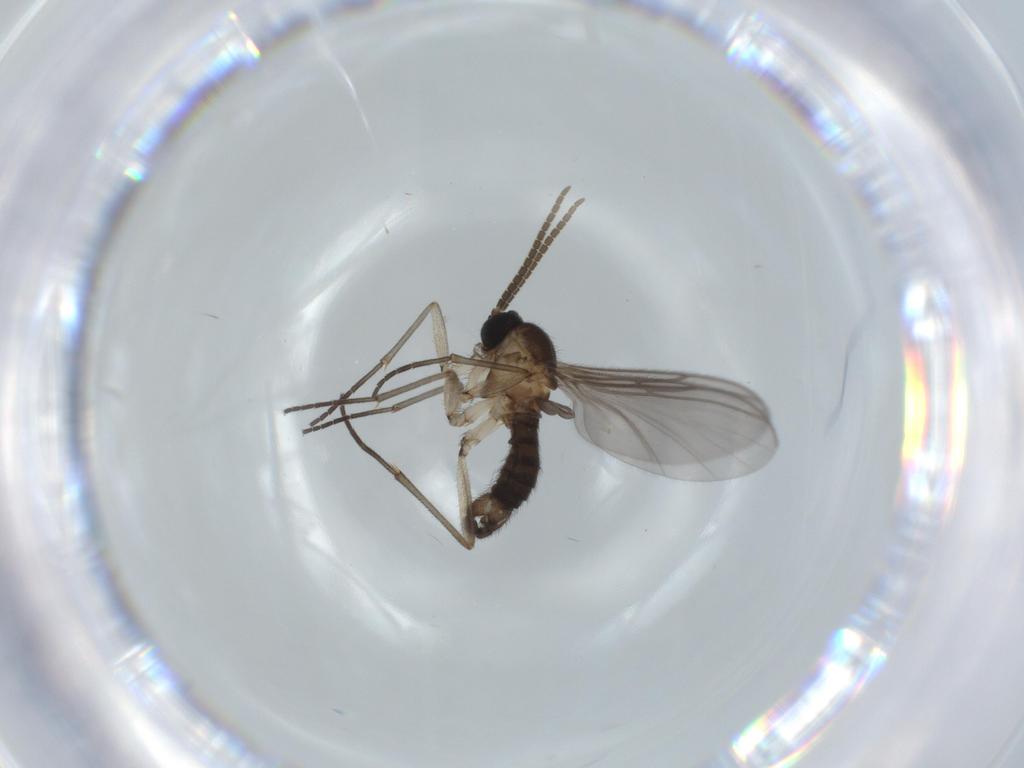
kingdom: Animalia
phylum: Arthropoda
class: Insecta
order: Diptera
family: Sciaridae
